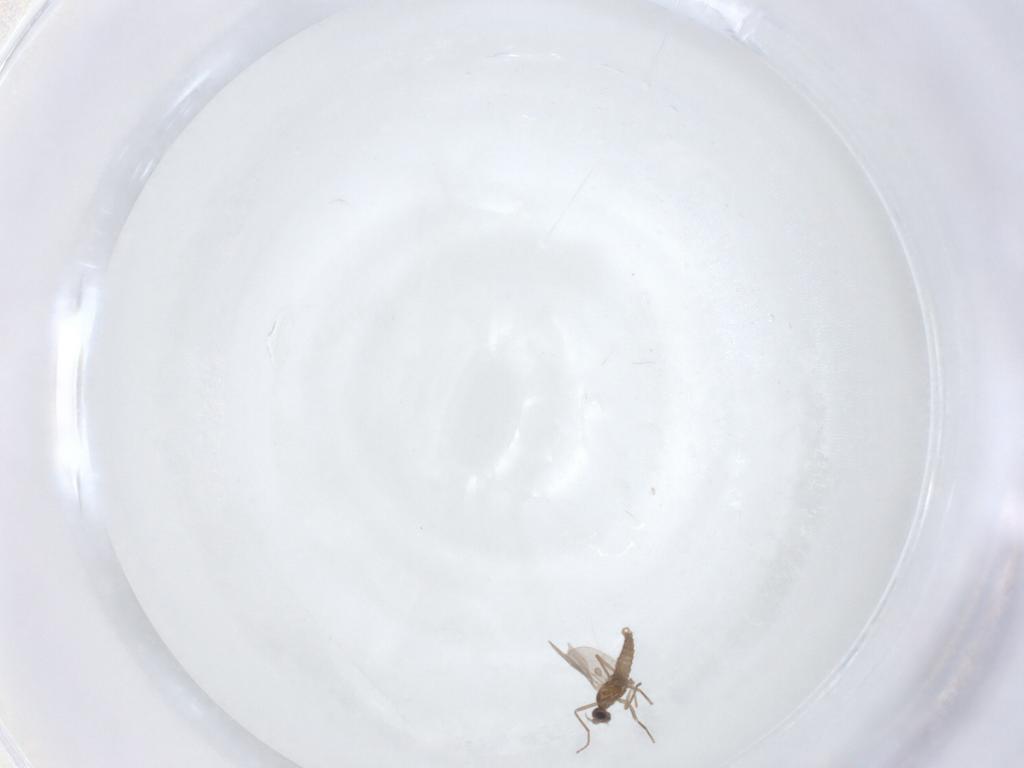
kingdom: Animalia
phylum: Arthropoda
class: Insecta
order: Diptera
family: Cecidomyiidae
